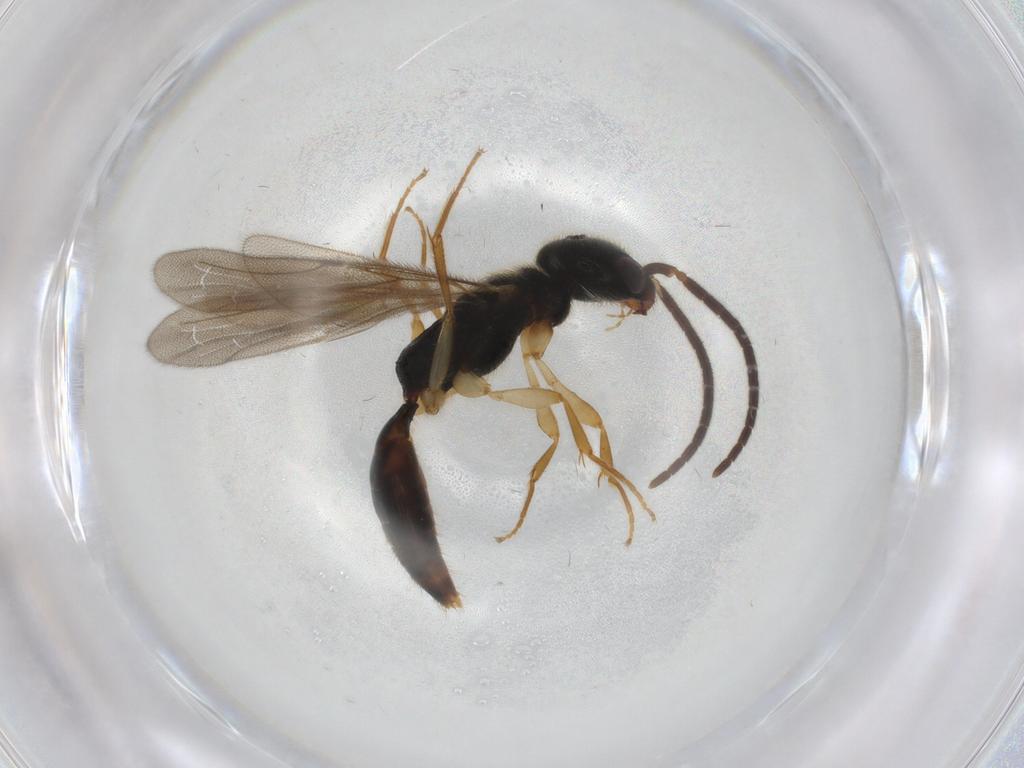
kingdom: Animalia
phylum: Arthropoda
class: Insecta
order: Hymenoptera
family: Bethylidae
